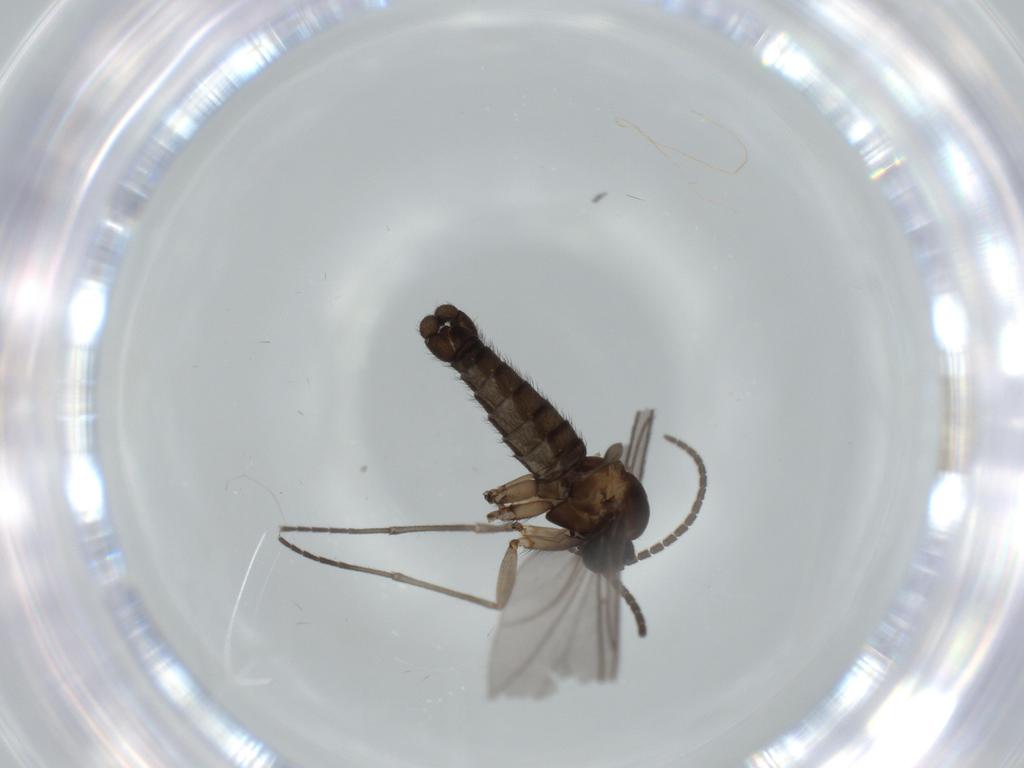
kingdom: Animalia
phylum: Arthropoda
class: Insecta
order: Diptera
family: Sciaridae
